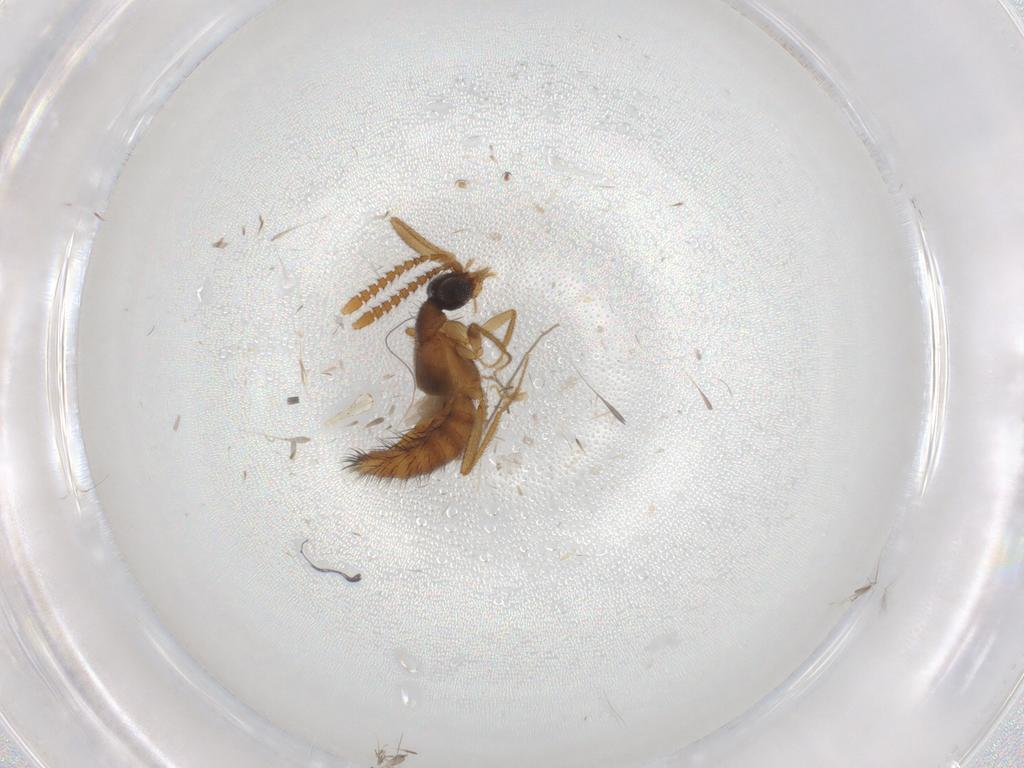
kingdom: Animalia
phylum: Arthropoda
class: Insecta
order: Coleoptera
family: Staphylinidae
